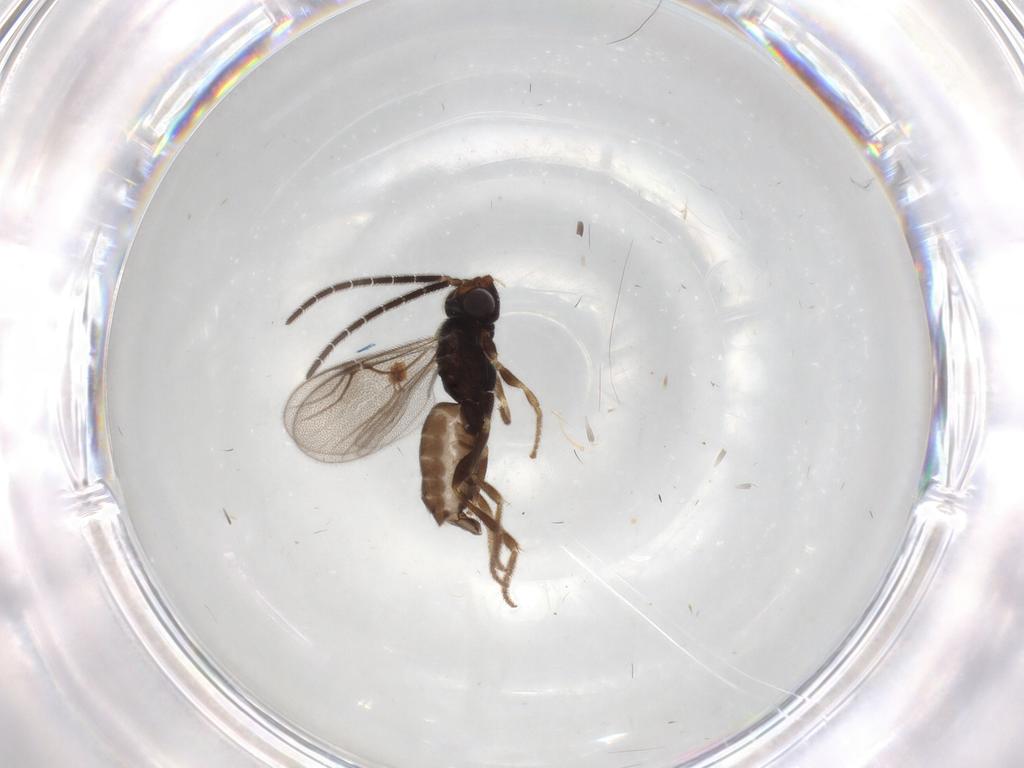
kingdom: Animalia
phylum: Arthropoda
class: Insecta
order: Hymenoptera
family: Dryinidae
